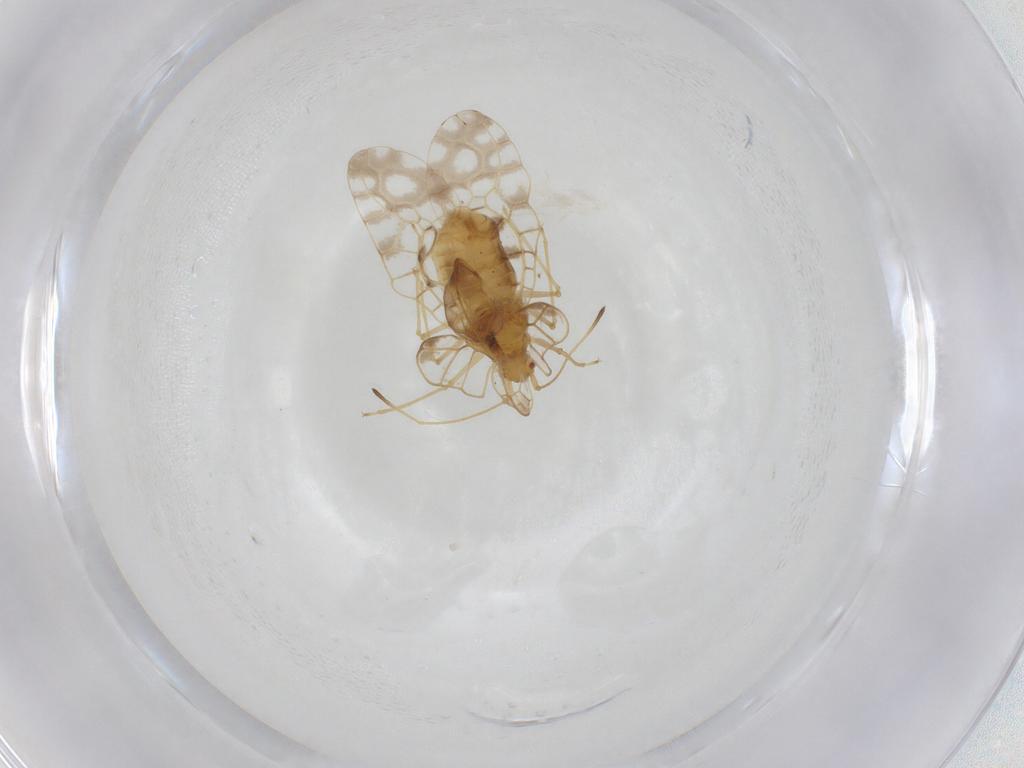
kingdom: Animalia
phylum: Arthropoda
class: Insecta
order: Hemiptera
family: Tingidae
